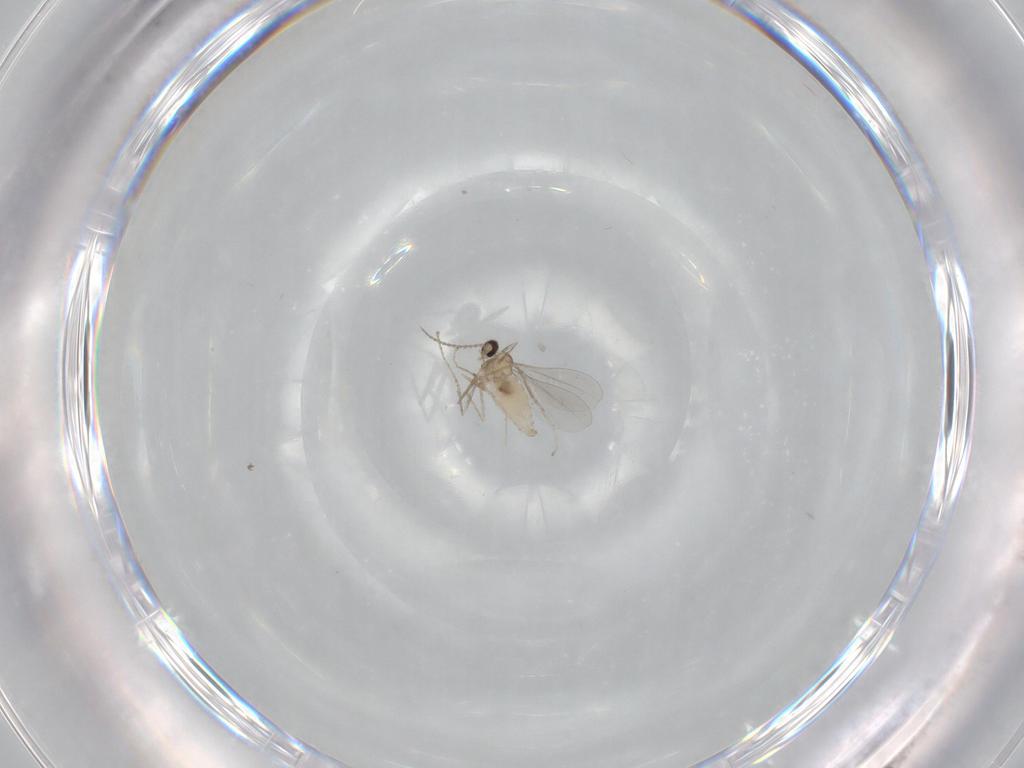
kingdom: Animalia
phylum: Arthropoda
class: Insecta
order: Diptera
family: Cecidomyiidae
